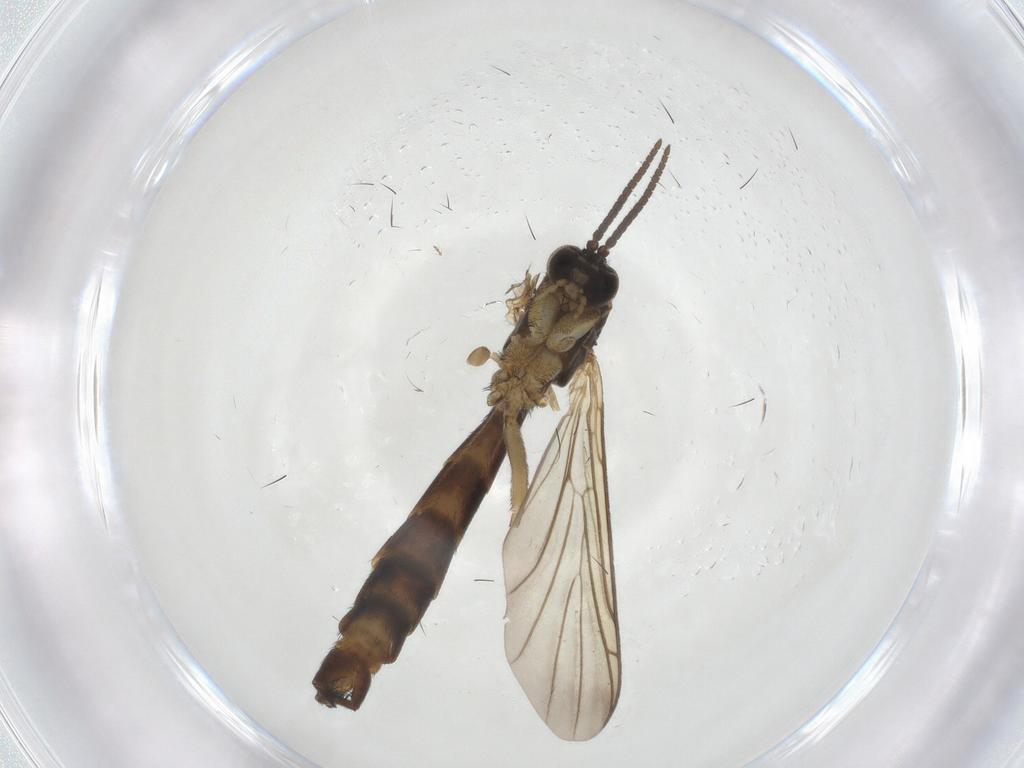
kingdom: Animalia
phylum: Arthropoda
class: Insecta
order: Diptera
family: Keroplatidae
